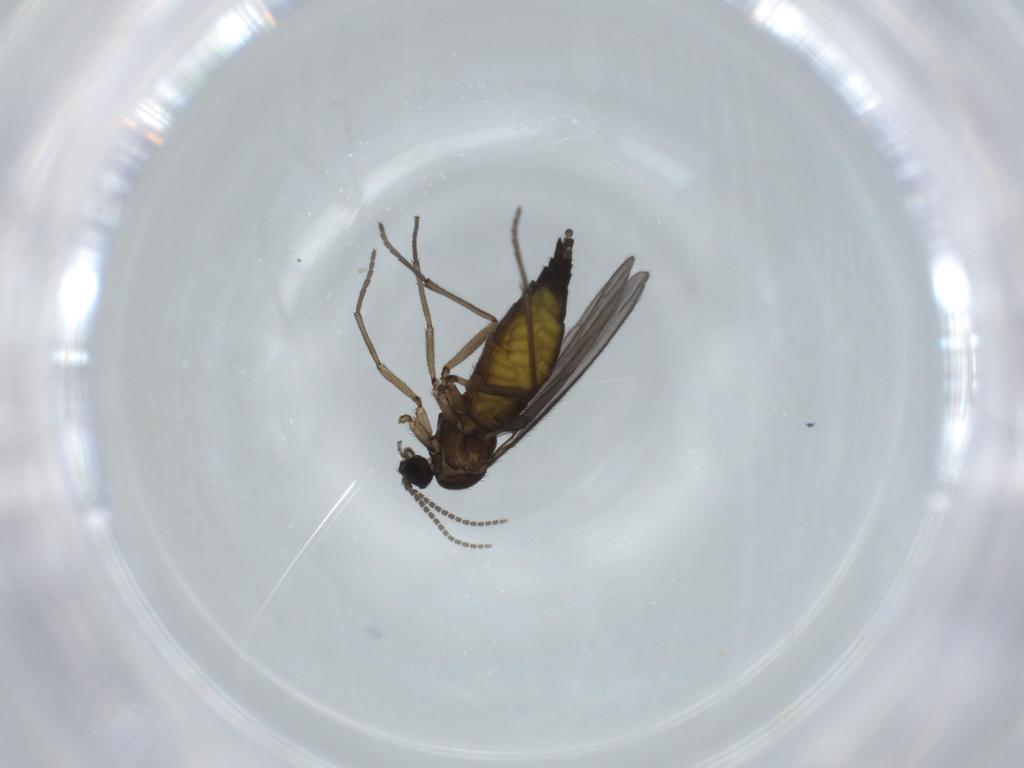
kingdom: Animalia
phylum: Arthropoda
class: Insecta
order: Diptera
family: Sciaridae
